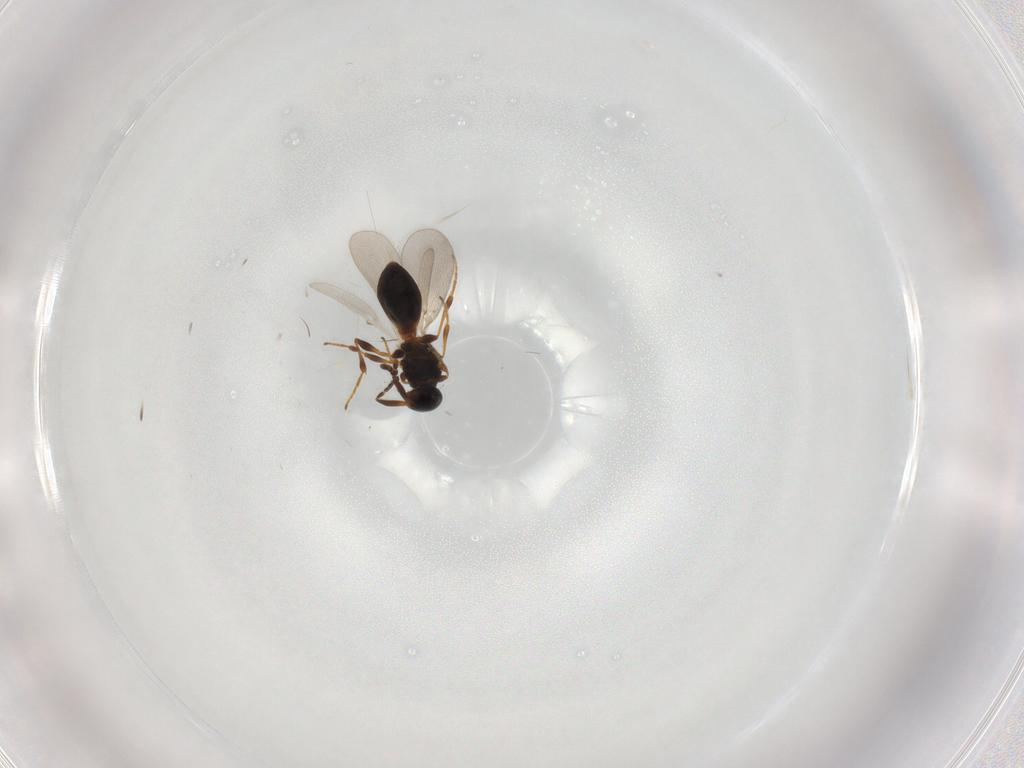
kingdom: Animalia
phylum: Arthropoda
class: Insecta
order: Hymenoptera
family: Platygastridae
